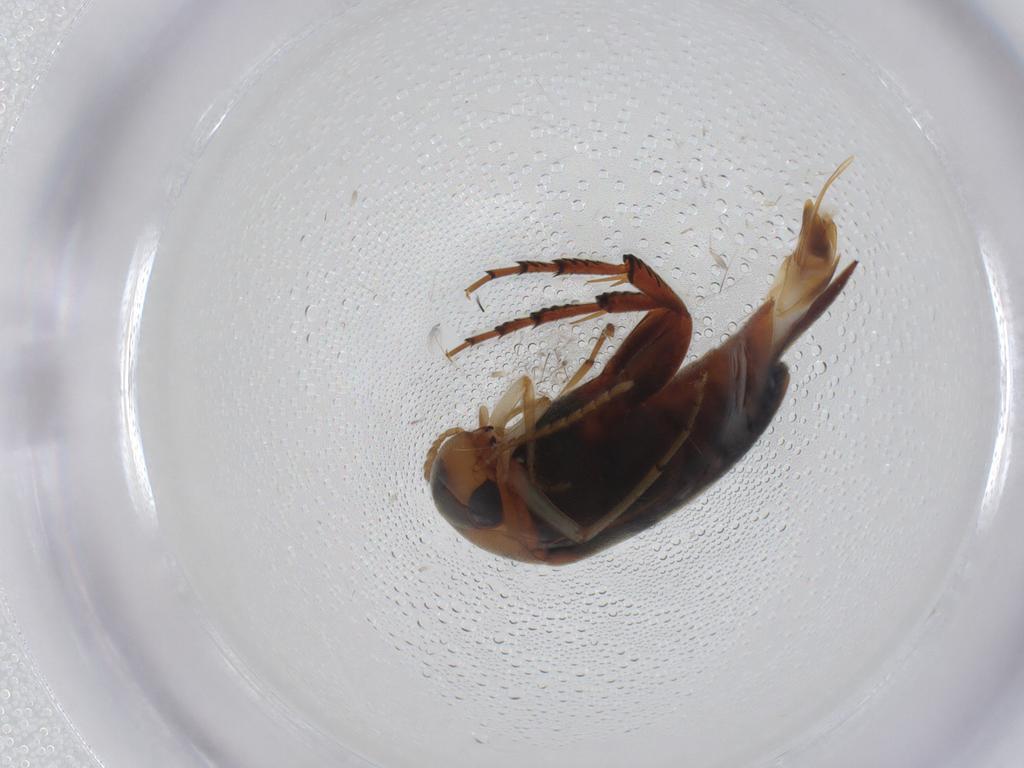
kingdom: Animalia
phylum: Arthropoda
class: Insecta
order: Coleoptera
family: Mordellidae
